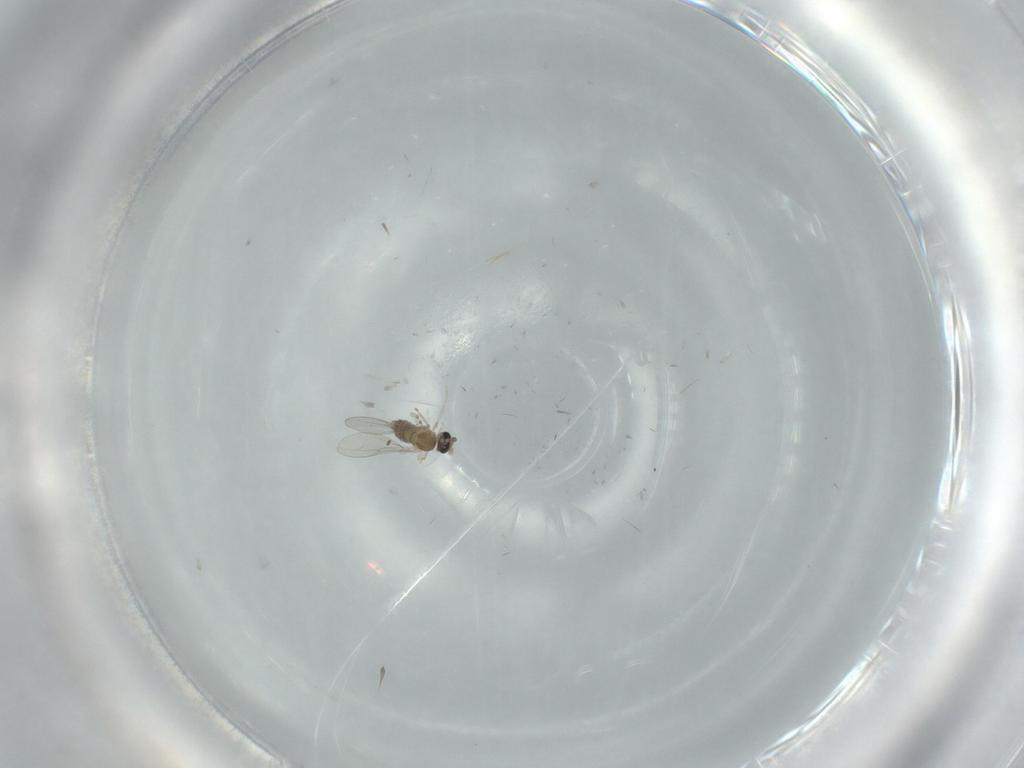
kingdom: Animalia
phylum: Arthropoda
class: Insecta
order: Diptera
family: Cecidomyiidae
